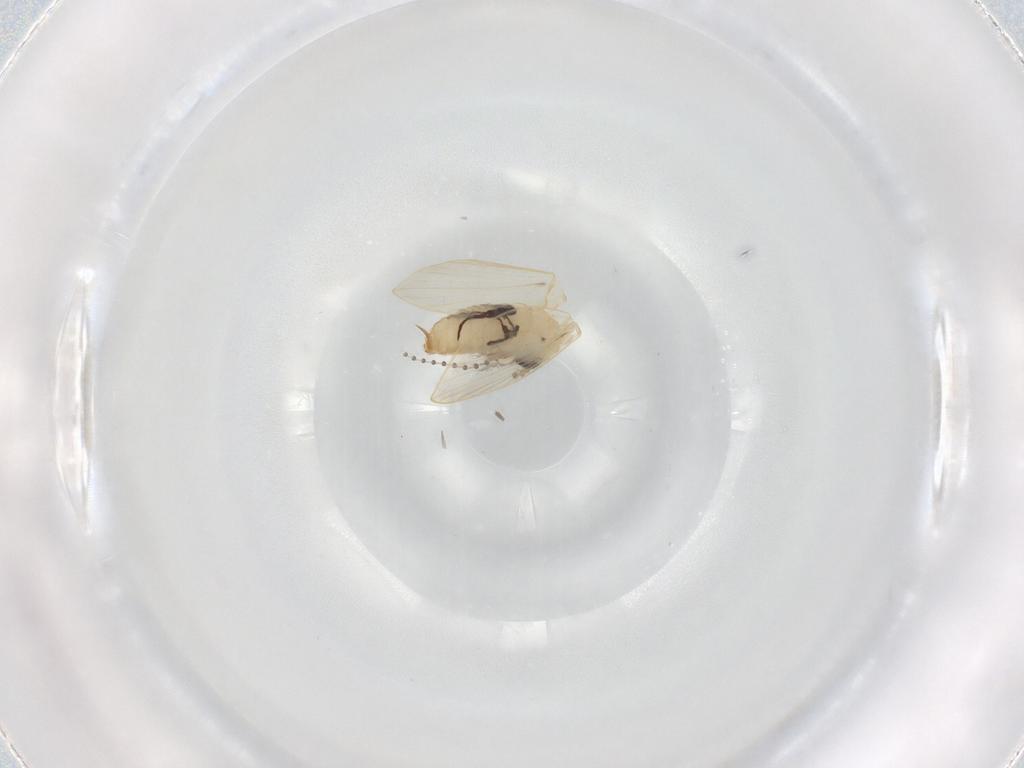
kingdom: Animalia
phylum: Arthropoda
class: Insecta
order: Diptera
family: Psychodidae
